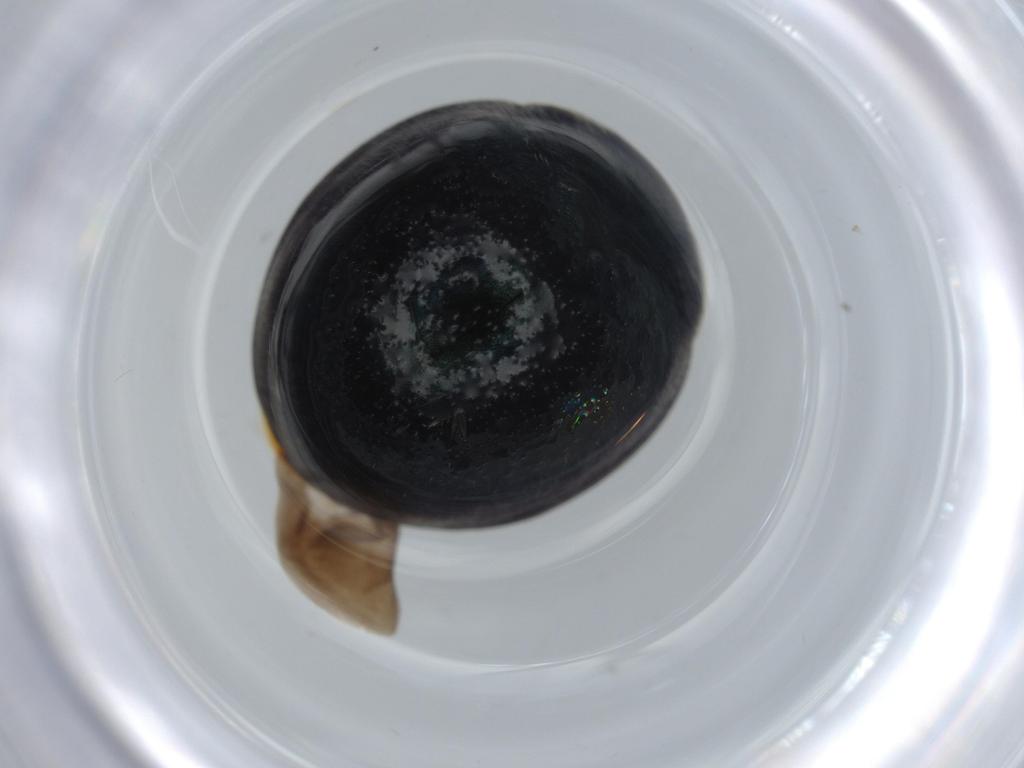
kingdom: Animalia
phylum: Arthropoda
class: Insecta
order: Coleoptera
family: Coccinellidae
